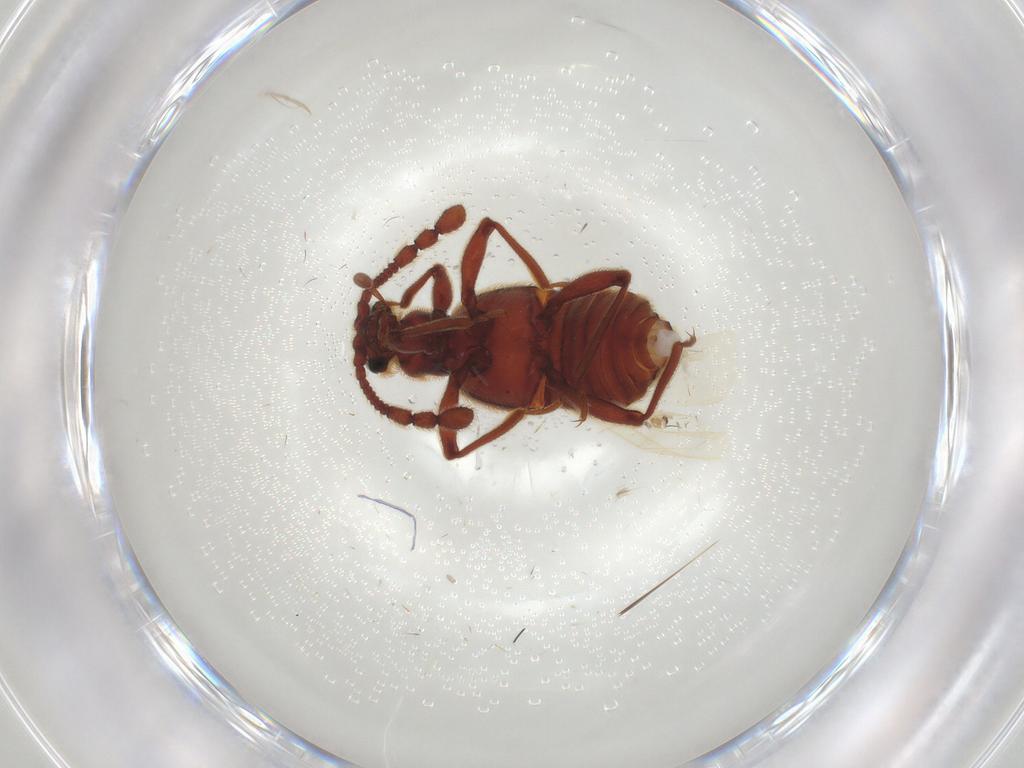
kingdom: Animalia
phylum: Arthropoda
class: Insecta
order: Coleoptera
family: Staphylinidae
